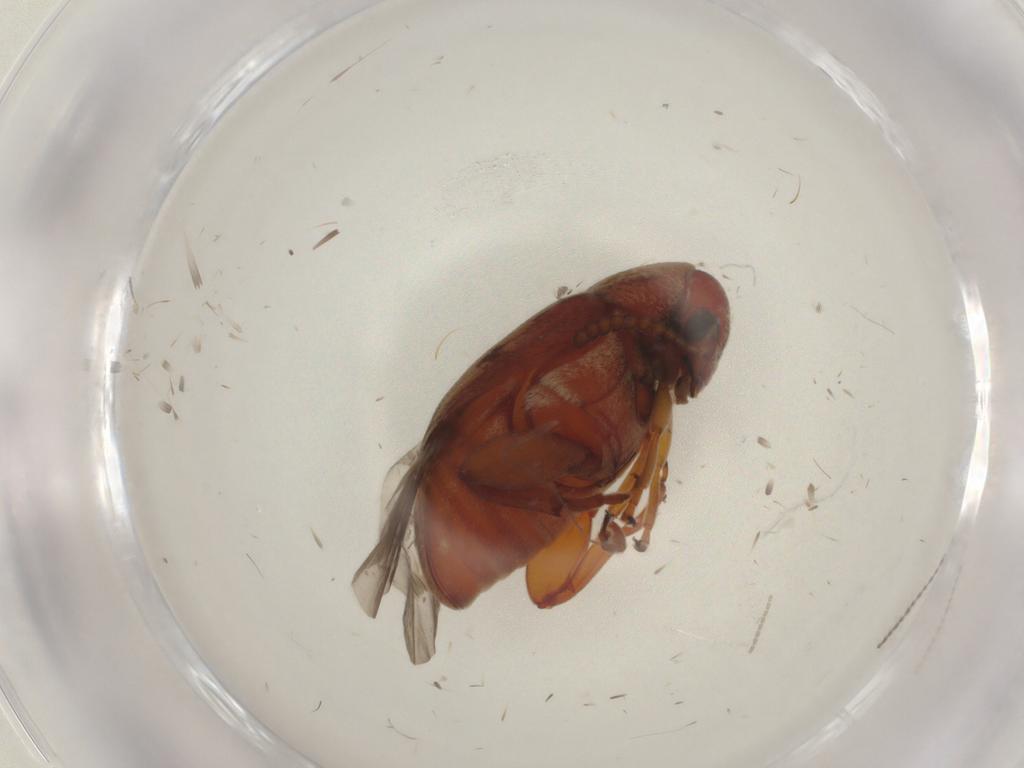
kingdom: Animalia
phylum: Arthropoda
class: Insecta
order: Coleoptera
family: Chrysomelidae
